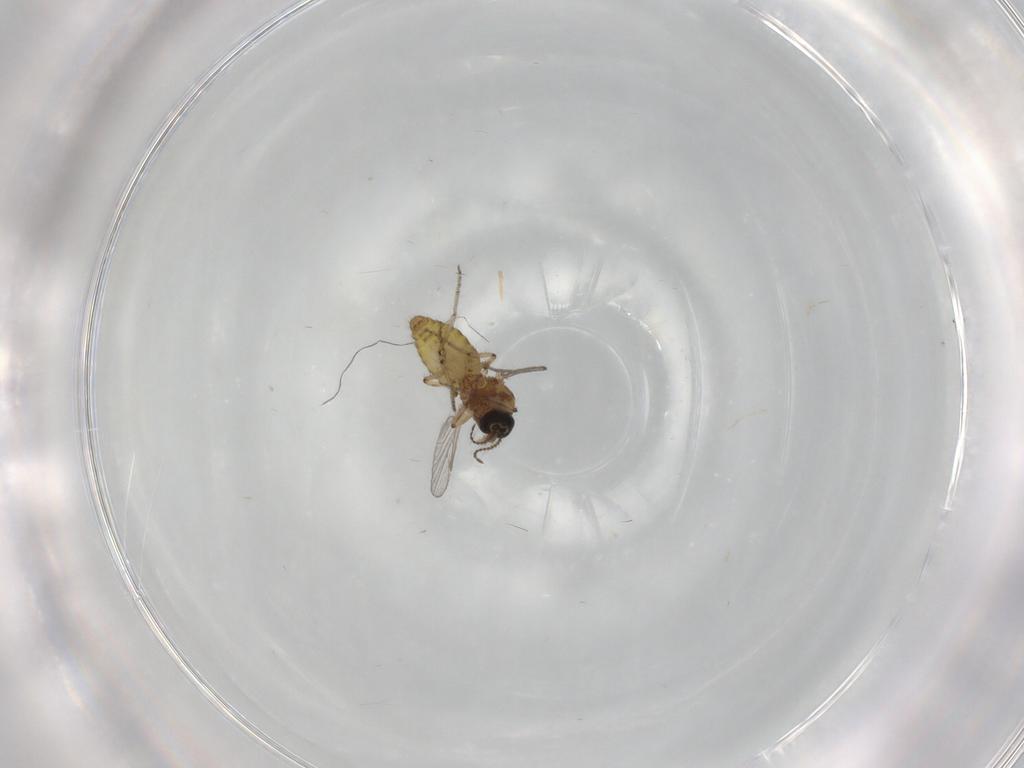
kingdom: Animalia
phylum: Arthropoda
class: Insecta
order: Diptera
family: Ceratopogonidae
